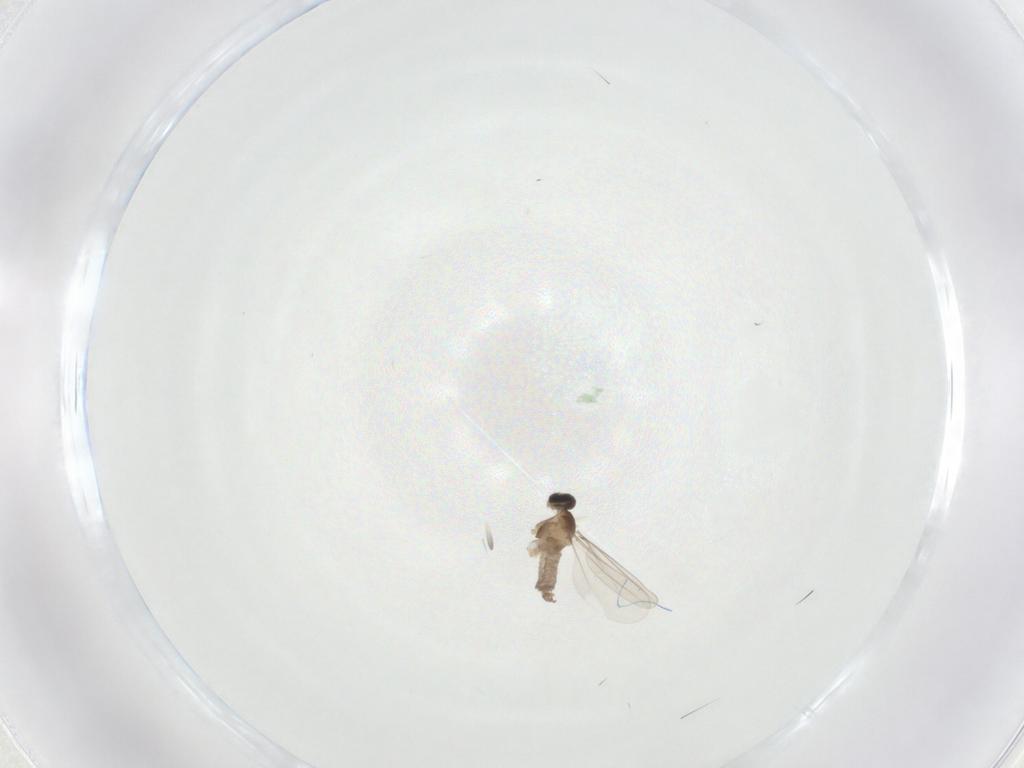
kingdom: Animalia
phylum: Arthropoda
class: Insecta
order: Diptera
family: Cecidomyiidae
